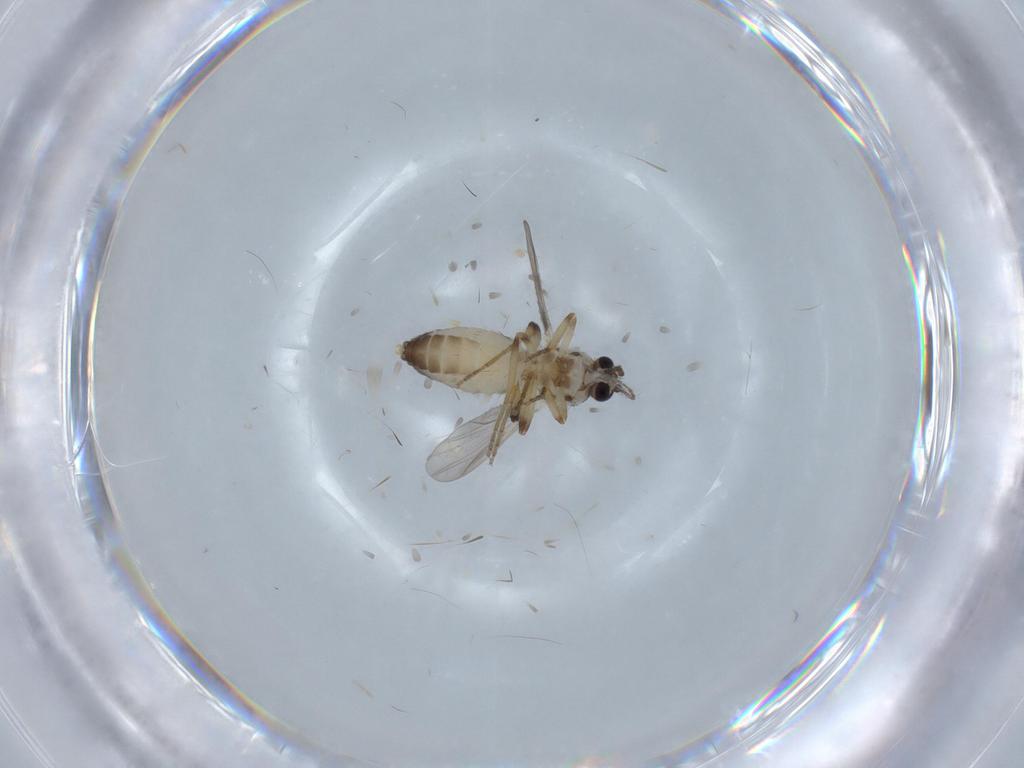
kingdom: Animalia
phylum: Arthropoda
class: Insecta
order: Diptera
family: Ceratopogonidae
